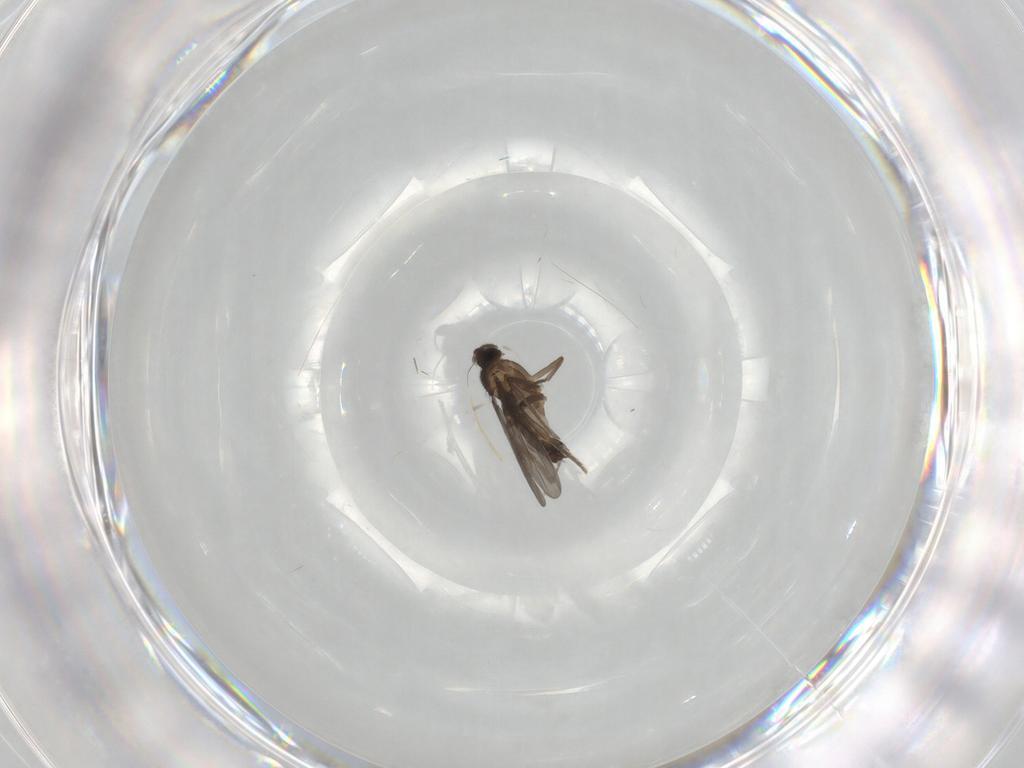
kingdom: Animalia
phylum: Arthropoda
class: Insecta
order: Diptera
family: Phoridae
